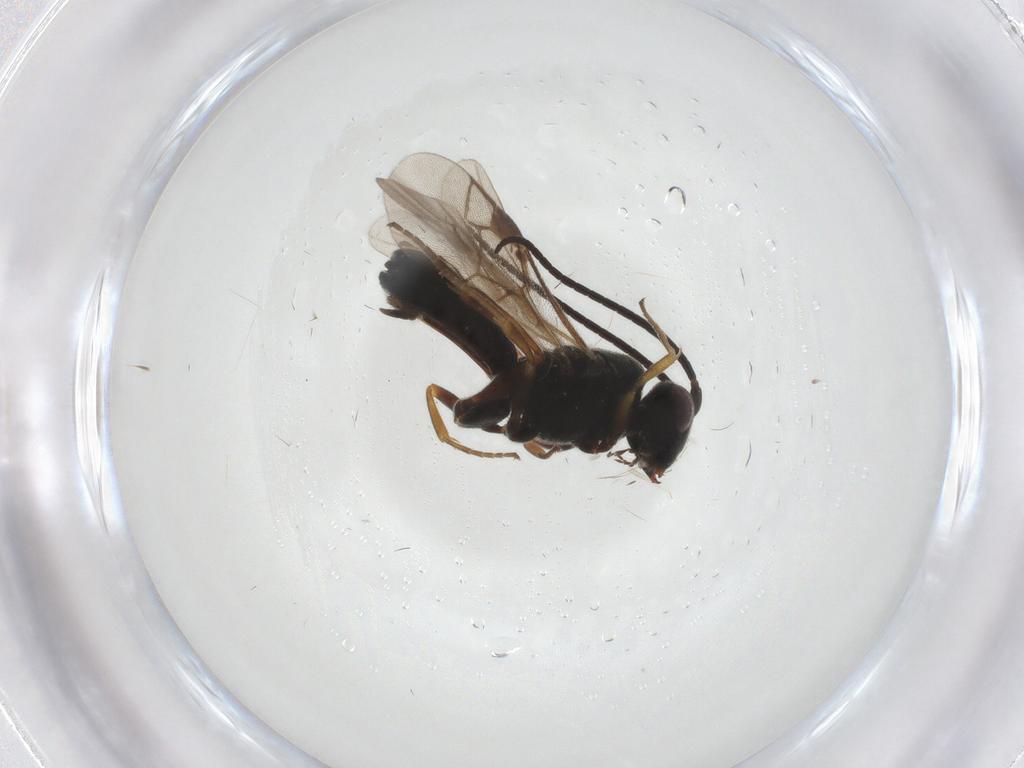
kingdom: Animalia
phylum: Arthropoda
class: Insecta
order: Hymenoptera
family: Braconidae
